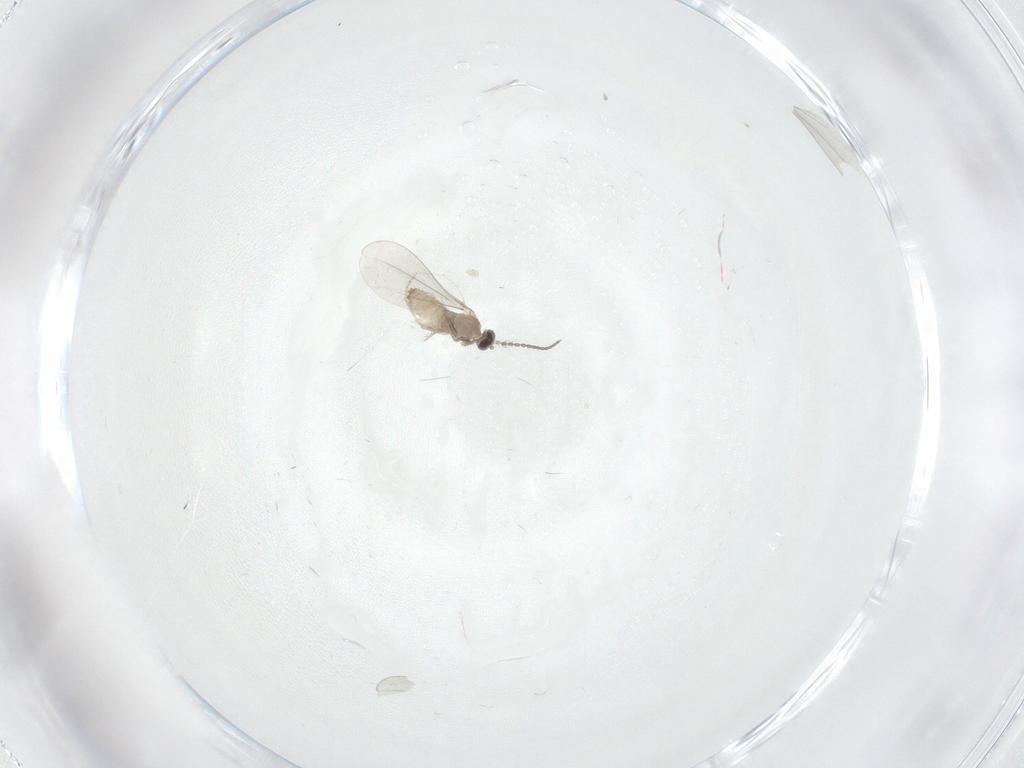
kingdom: Animalia
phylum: Arthropoda
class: Insecta
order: Diptera
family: Cecidomyiidae
